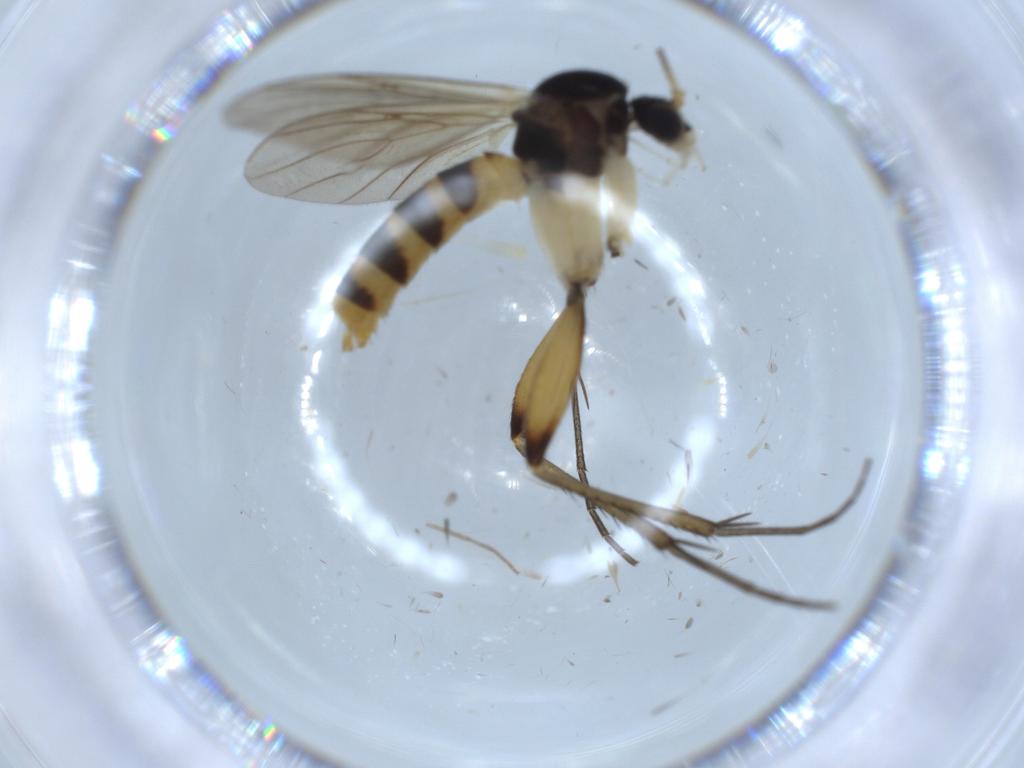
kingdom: Animalia
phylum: Arthropoda
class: Insecta
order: Diptera
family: Mycetophilidae
